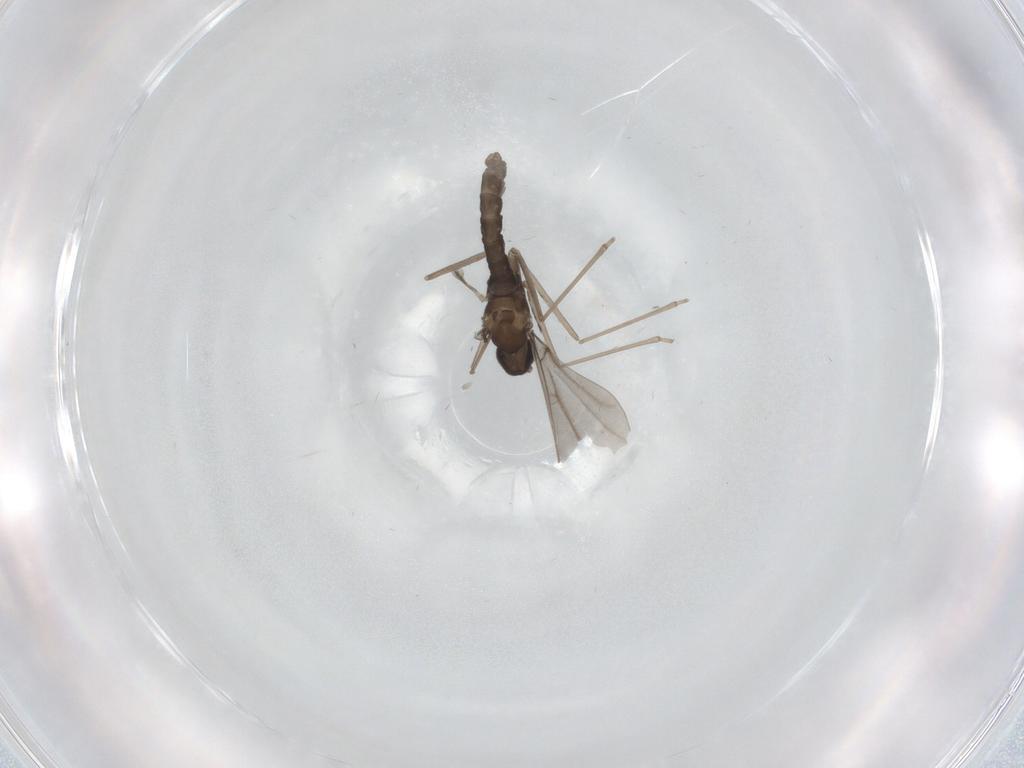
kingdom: Animalia
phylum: Arthropoda
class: Insecta
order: Diptera
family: Cecidomyiidae
